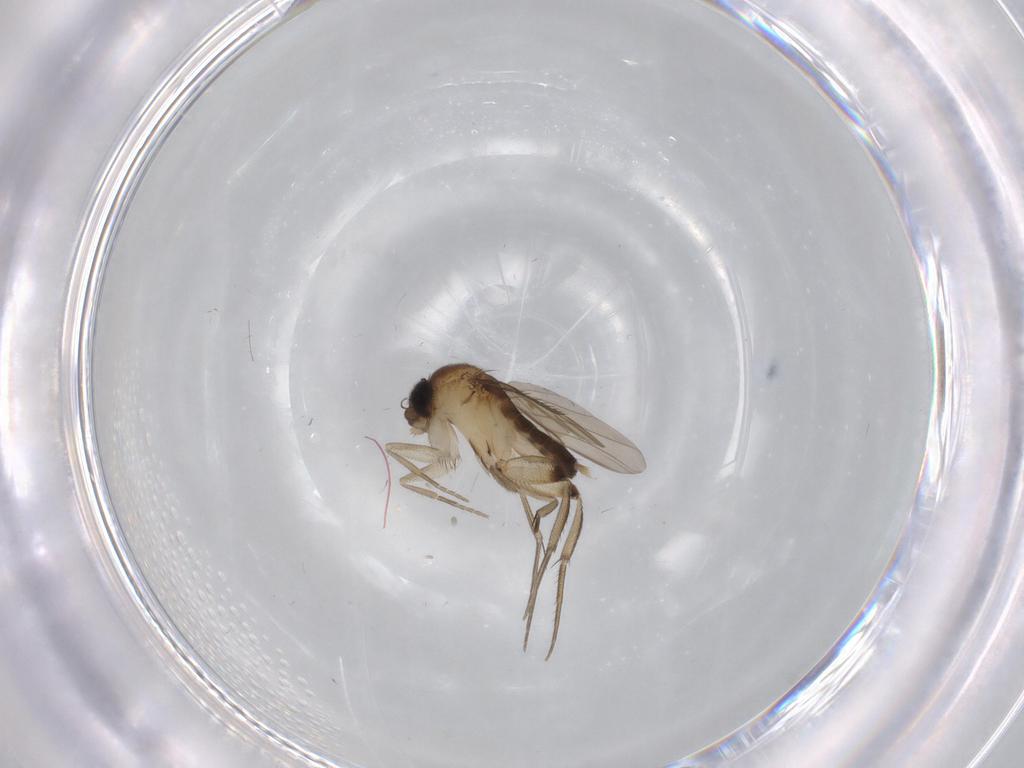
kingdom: Animalia
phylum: Arthropoda
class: Insecta
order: Diptera
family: Phoridae
